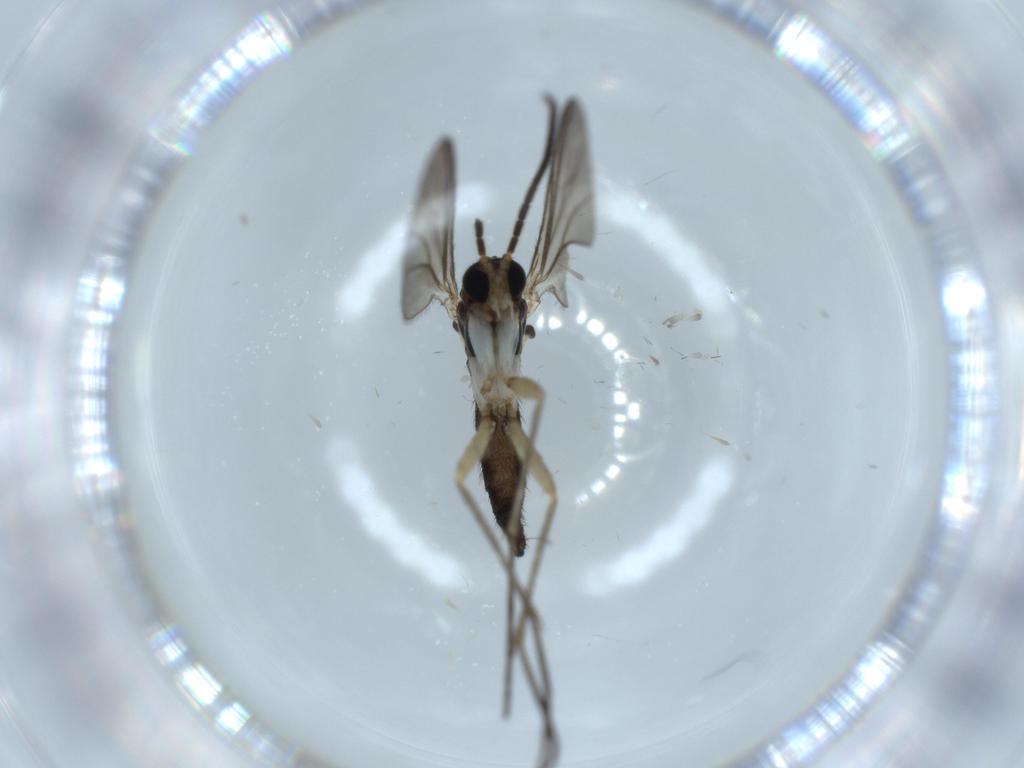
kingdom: Animalia
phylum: Arthropoda
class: Insecta
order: Diptera
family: Sciaridae
